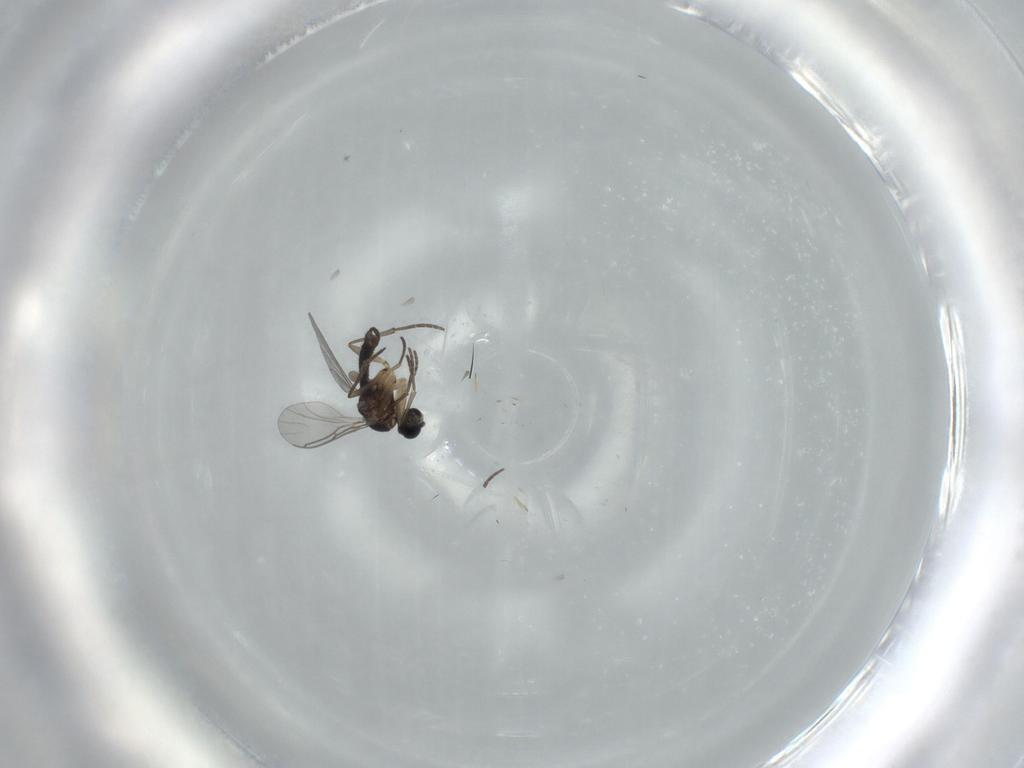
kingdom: Animalia
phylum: Arthropoda
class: Insecta
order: Diptera
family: Sciaridae
